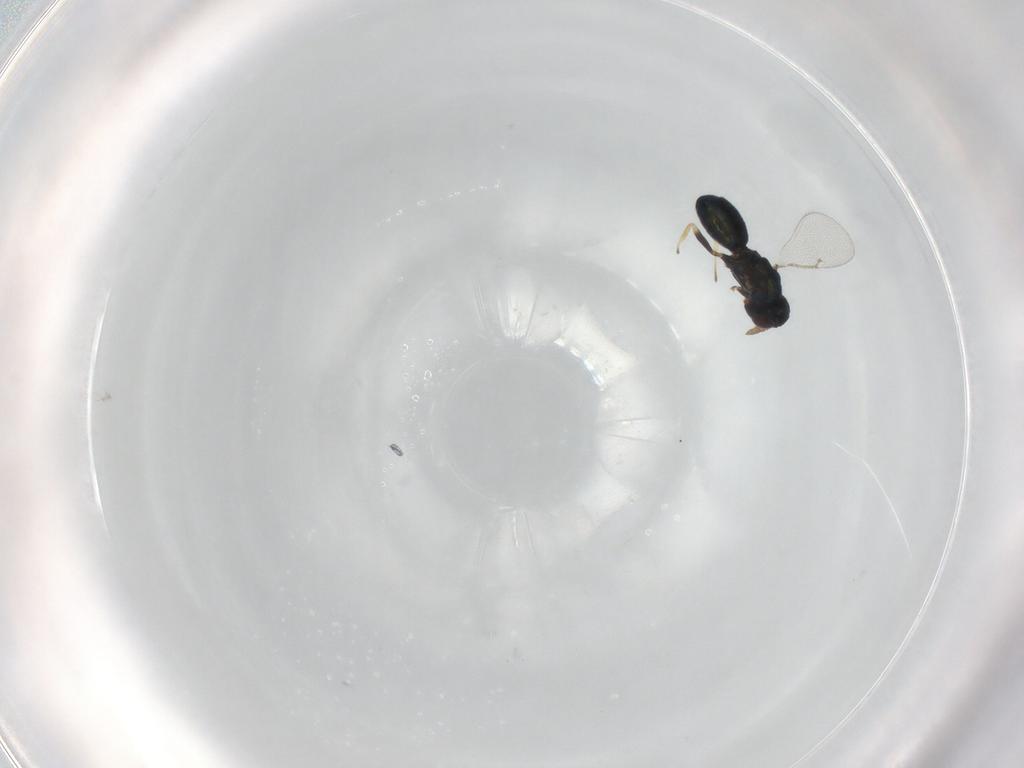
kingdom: Animalia
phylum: Arthropoda
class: Insecta
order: Hymenoptera
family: Eulophidae
